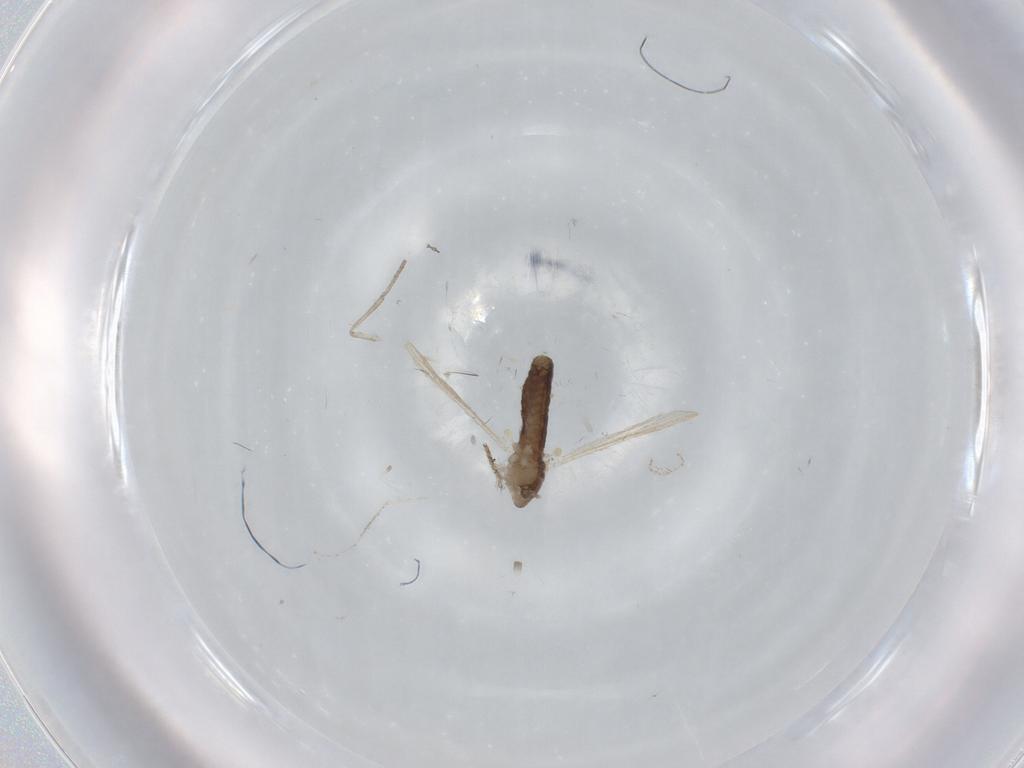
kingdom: Animalia
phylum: Arthropoda
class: Insecta
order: Diptera
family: Chironomidae
